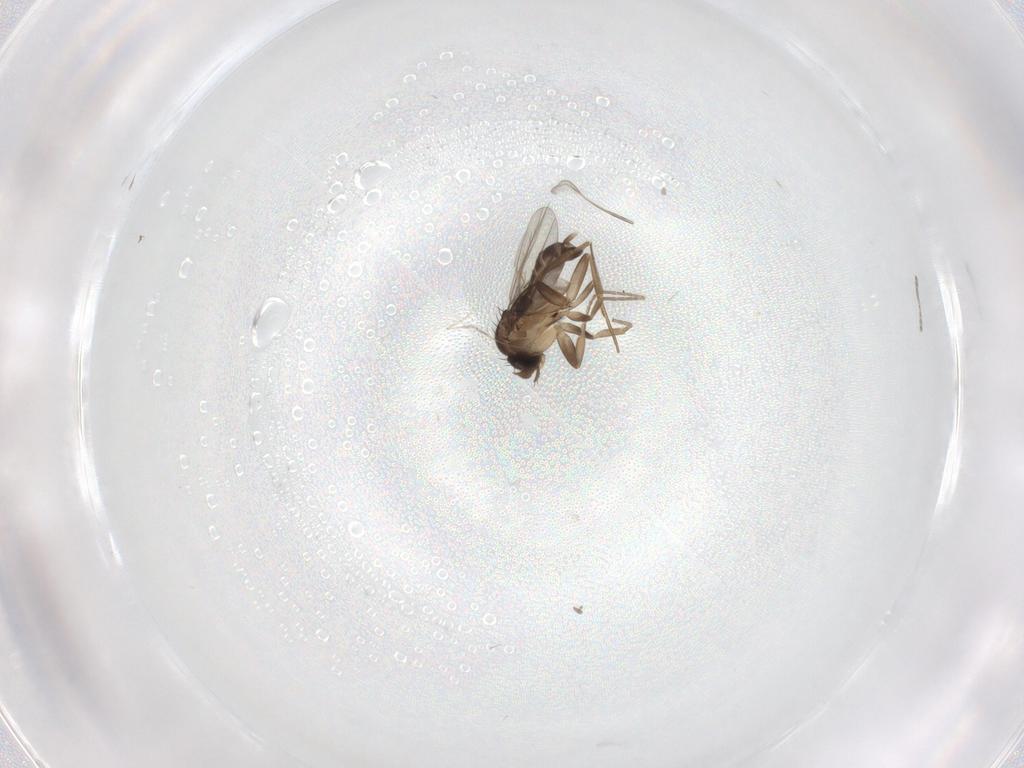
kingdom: Animalia
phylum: Arthropoda
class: Insecta
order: Diptera
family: Phoridae
